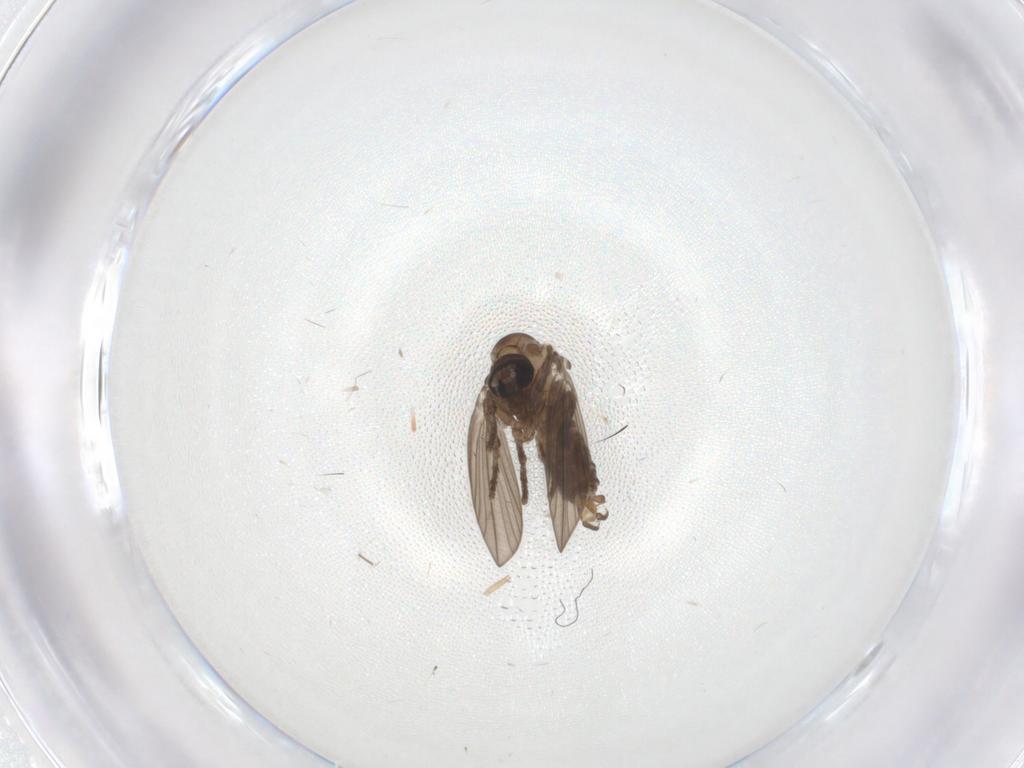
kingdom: Animalia
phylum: Arthropoda
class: Insecta
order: Diptera
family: Psychodidae
